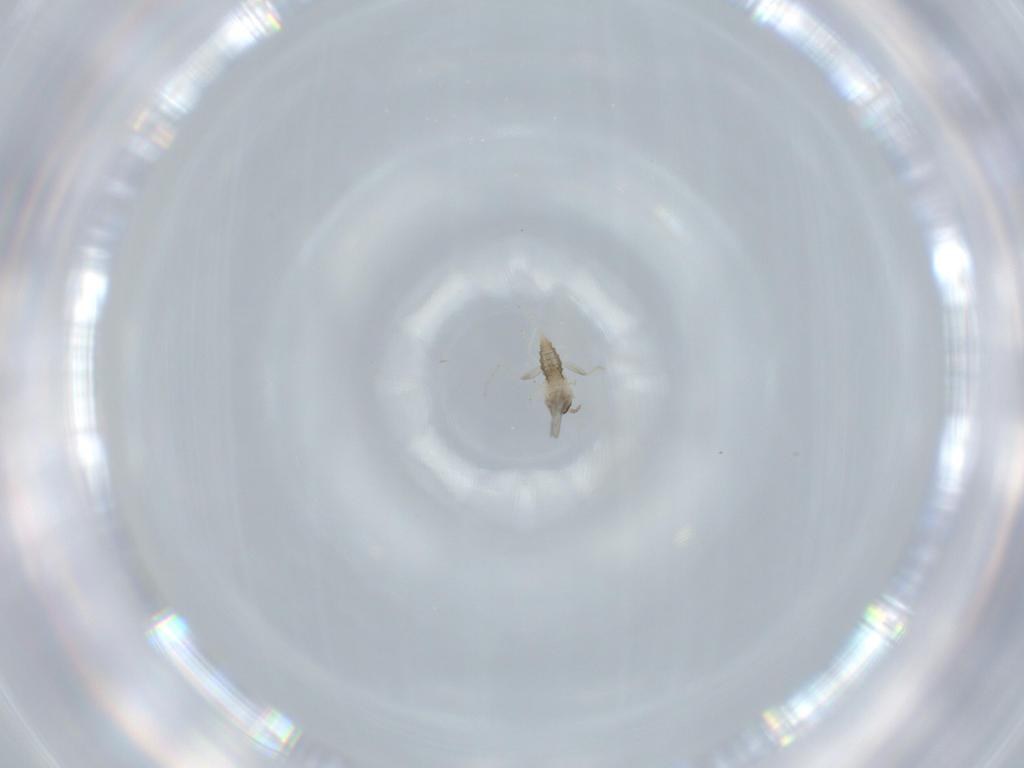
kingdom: Animalia
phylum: Arthropoda
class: Insecta
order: Diptera
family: Cecidomyiidae
